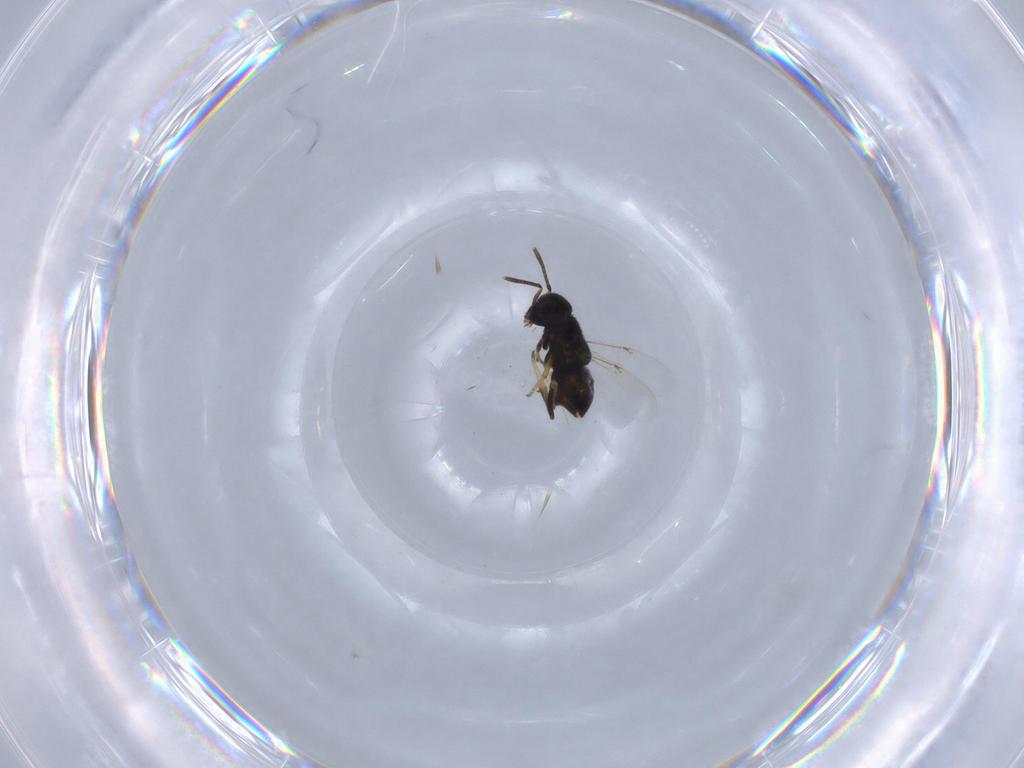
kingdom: Animalia
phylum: Arthropoda
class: Insecta
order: Hymenoptera
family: Encyrtidae
